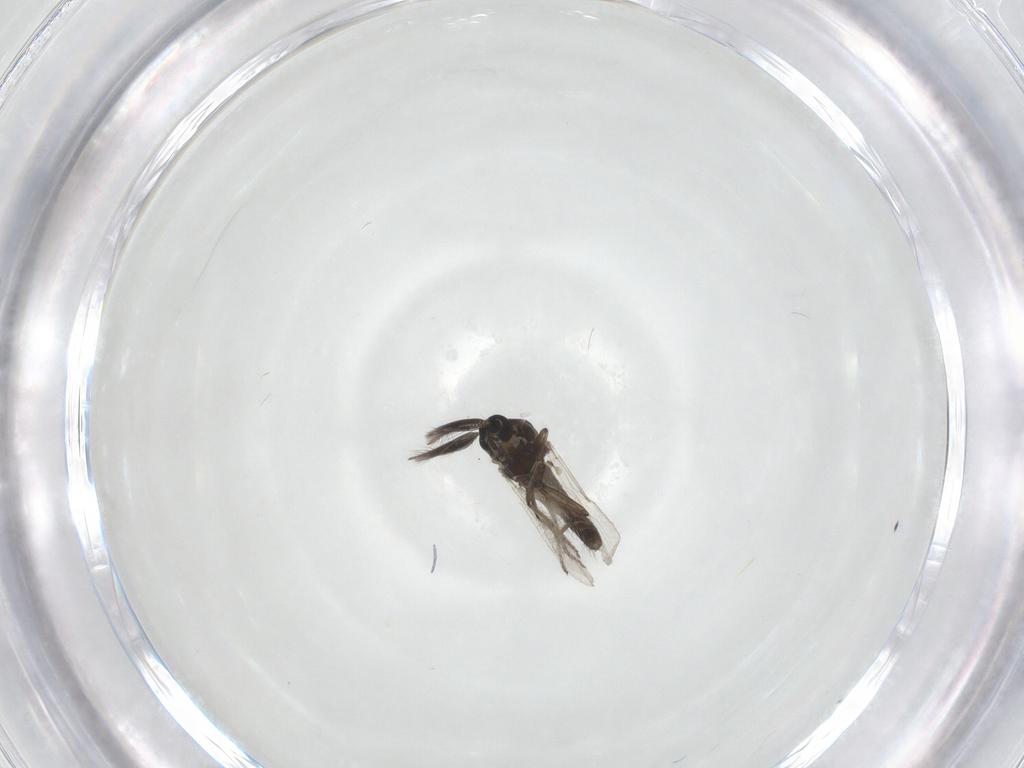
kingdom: Animalia
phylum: Arthropoda
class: Insecta
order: Diptera
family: Ceratopogonidae
